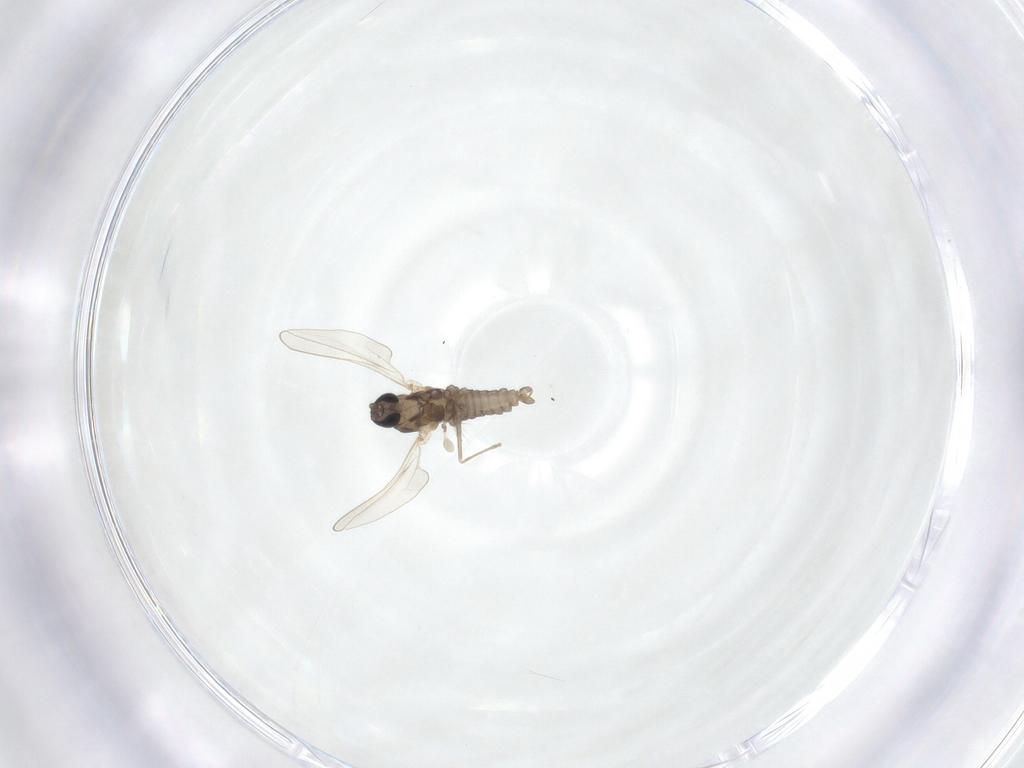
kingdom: Animalia
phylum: Arthropoda
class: Insecta
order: Diptera
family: Cecidomyiidae
